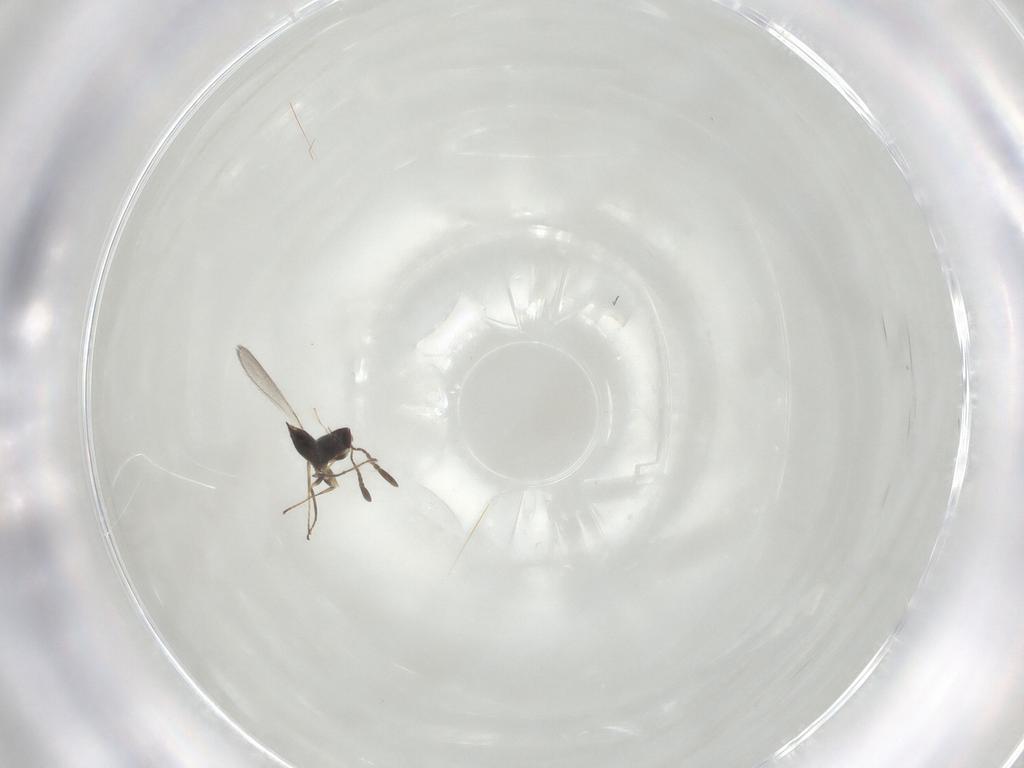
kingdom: Animalia
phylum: Arthropoda
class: Insecta
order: Hymenoptera
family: Mymaridae
